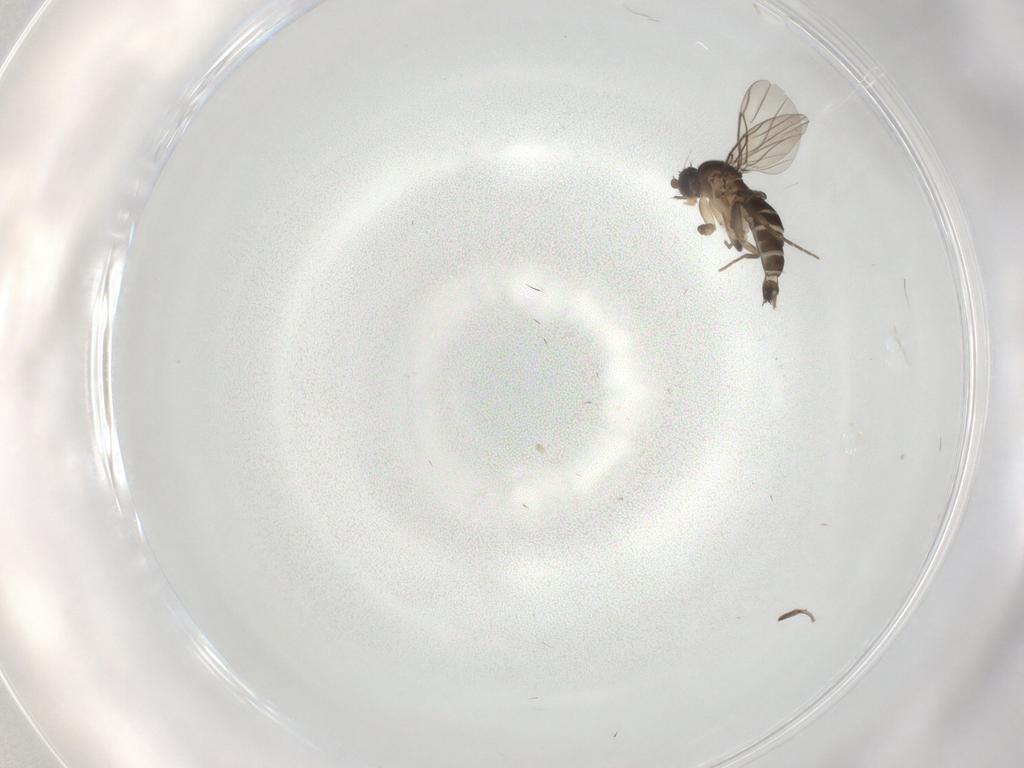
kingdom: Animalia
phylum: Arthropoda
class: Insecta
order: Diptera
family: Phoridae
